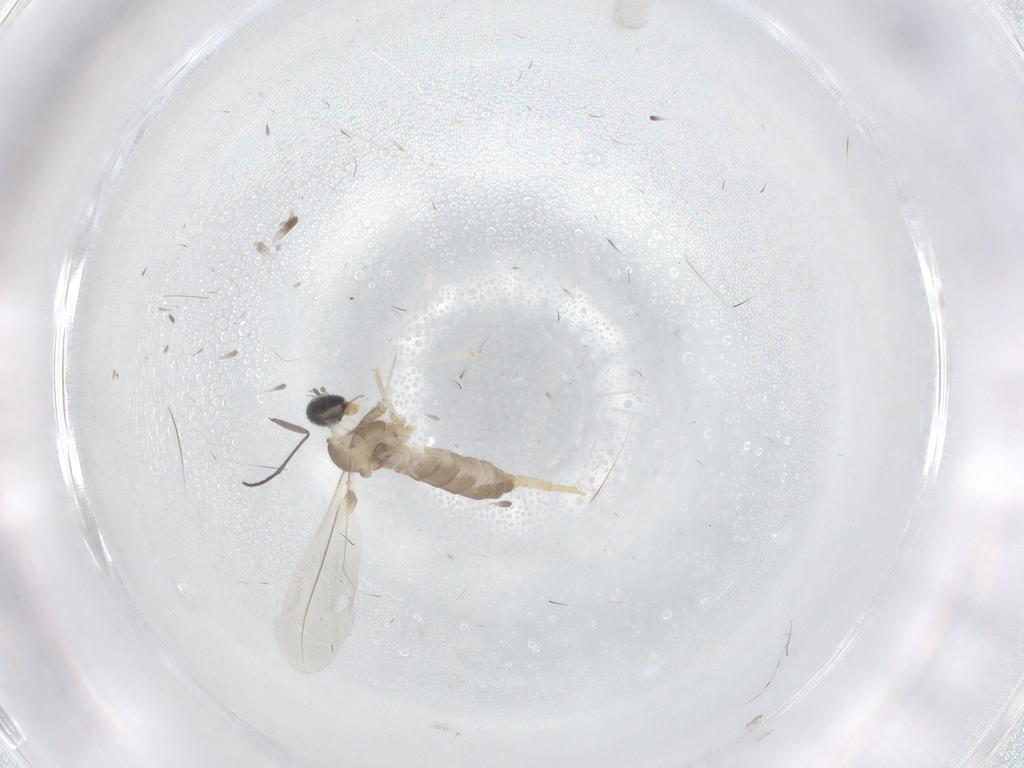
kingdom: Animalia
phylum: Arthropoda
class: Insecta
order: Diptera
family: Cecidomyiidae
